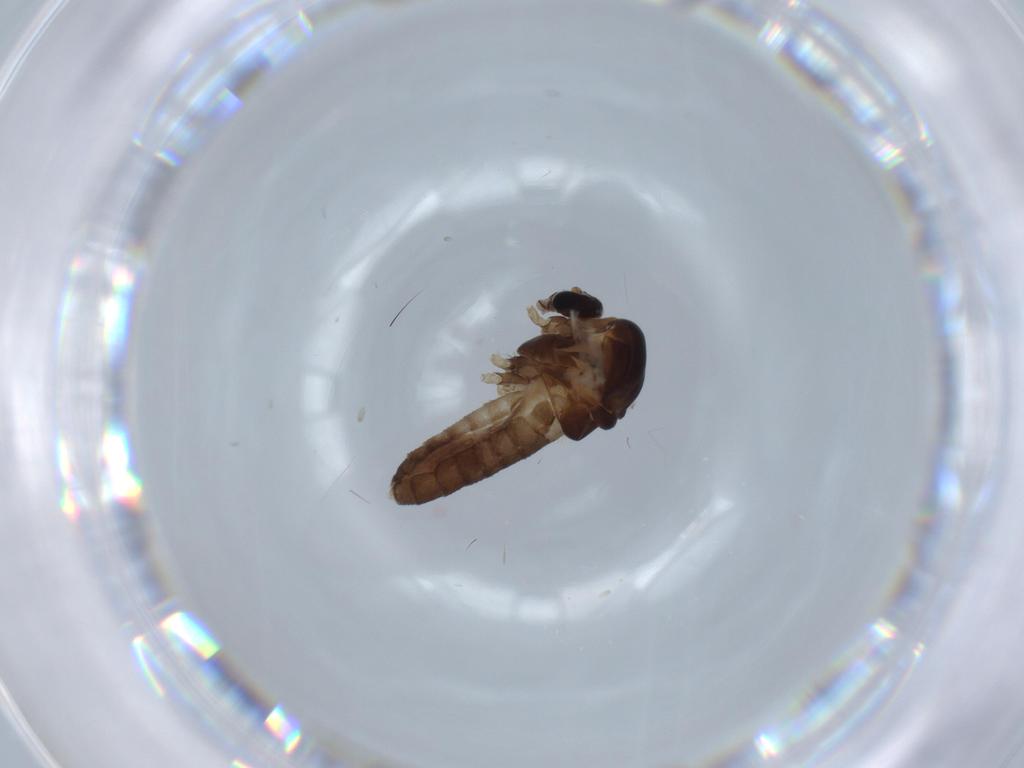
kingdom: Animalia
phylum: Arthropoda
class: Insecta
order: Diptera
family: Chironomidae
